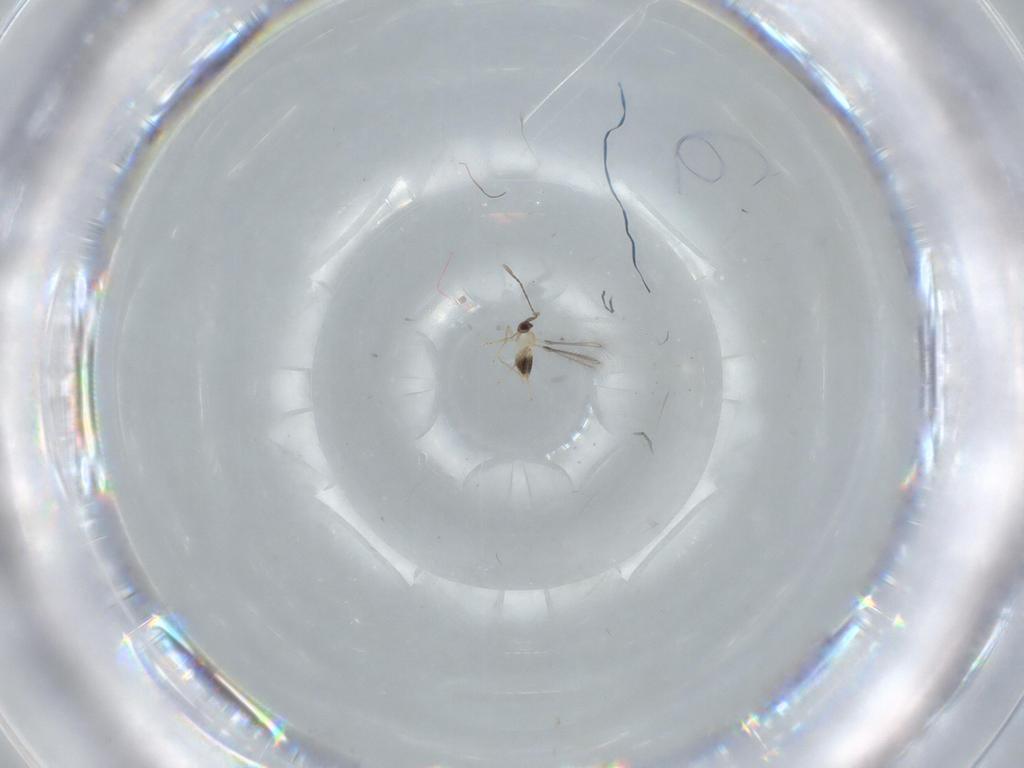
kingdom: Animalia
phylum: Arthropoda
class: Insecta
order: Hymenoptera
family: Mymaridae
